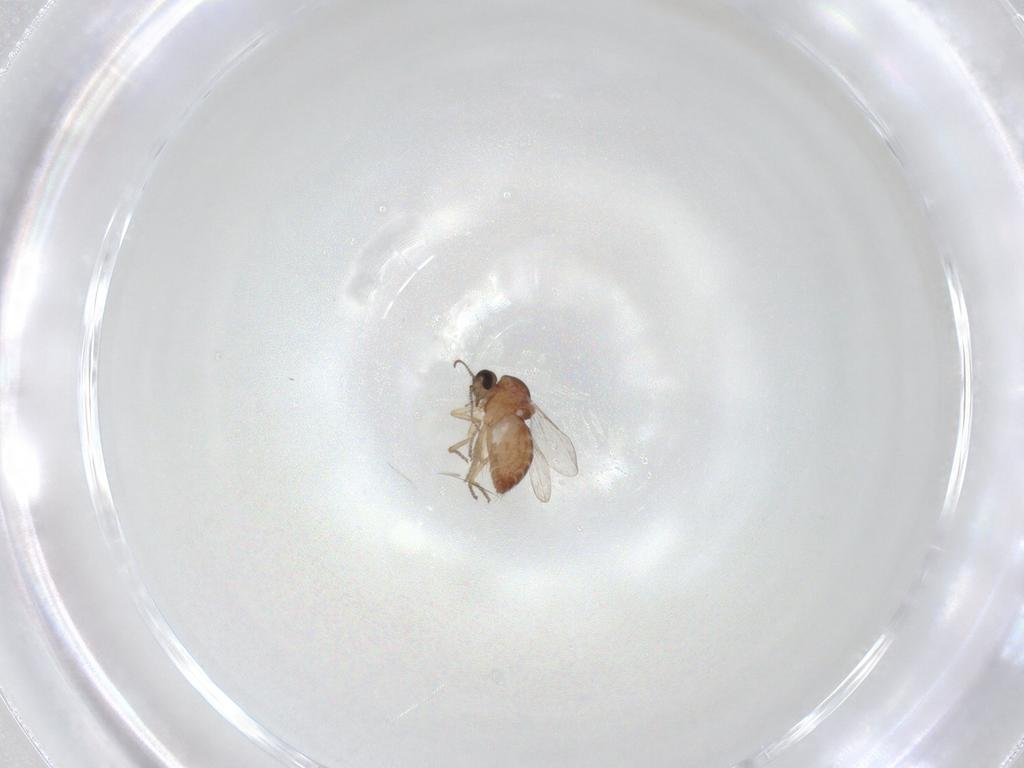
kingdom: Animalia
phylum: Arthropoda
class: Insecta
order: Diptera
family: Ceratopogonidae
